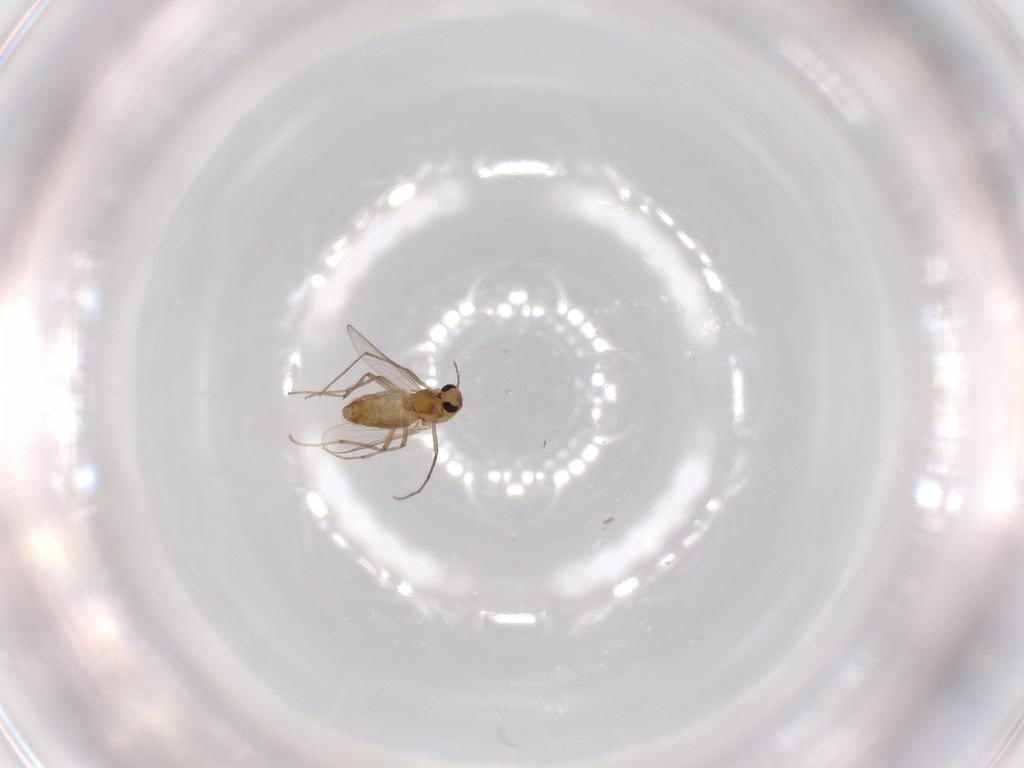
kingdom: Animalia
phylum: Arthropoda
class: Insecta
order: Diptera
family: Chironomidae
